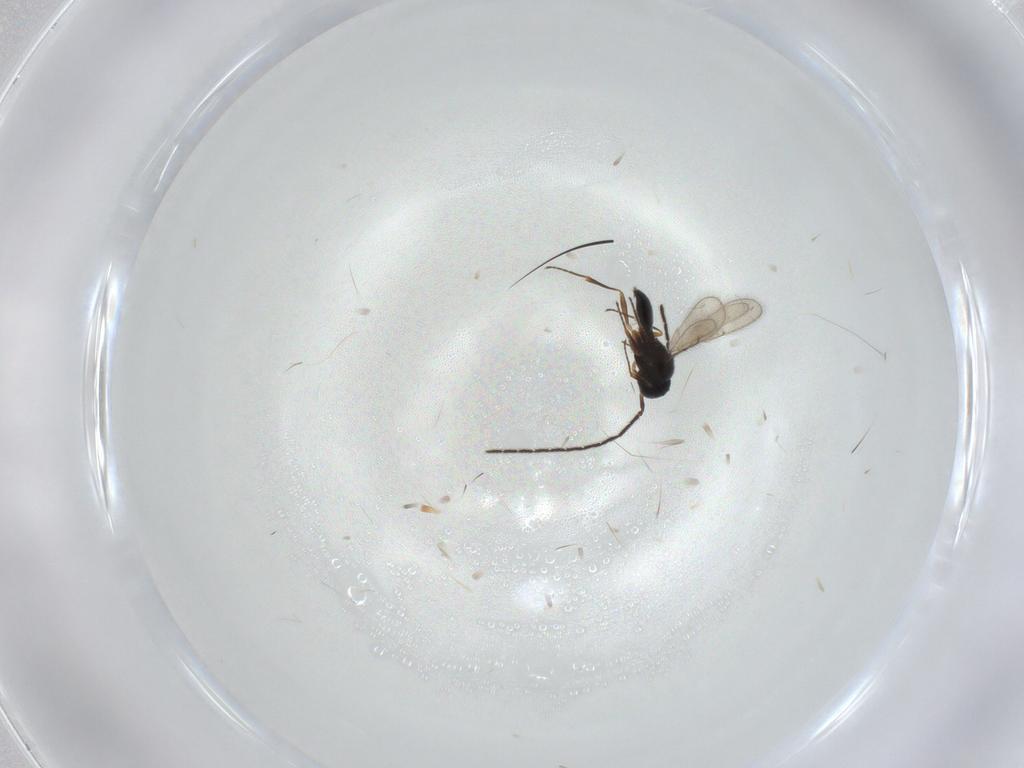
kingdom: Animalia
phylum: Arthropoda
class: Insecta
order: Hymenoptera
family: Scelionidae
